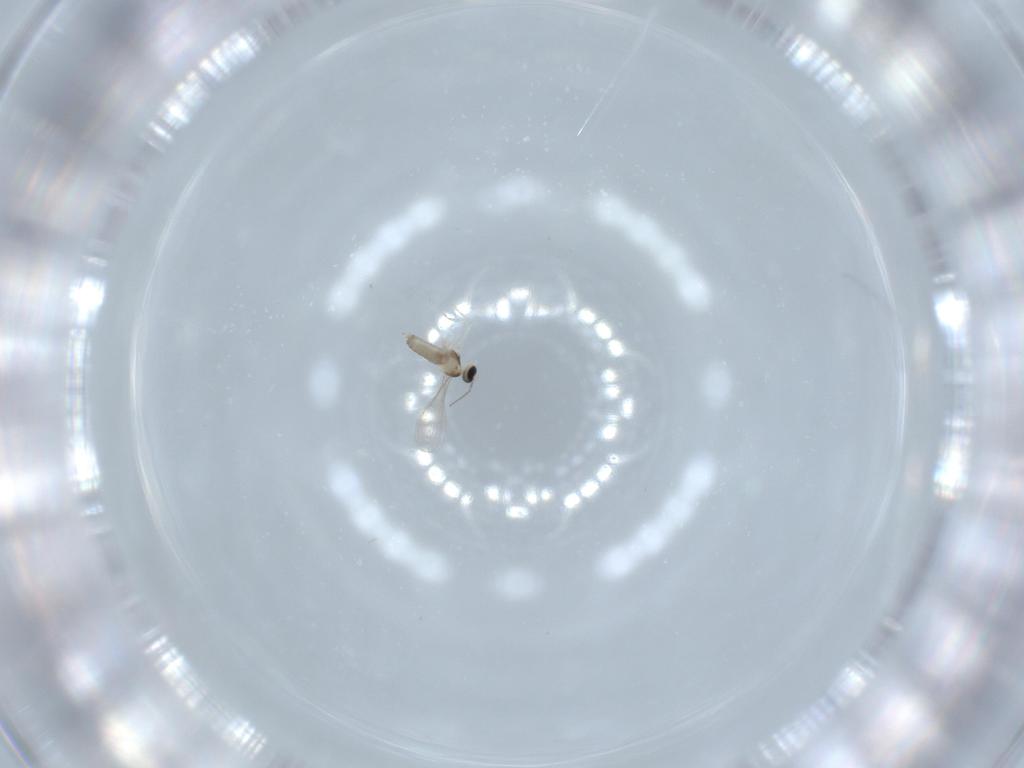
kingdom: Animalia
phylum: Arthropoda
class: Insecta
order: Diptera
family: Cecidomyiidae
